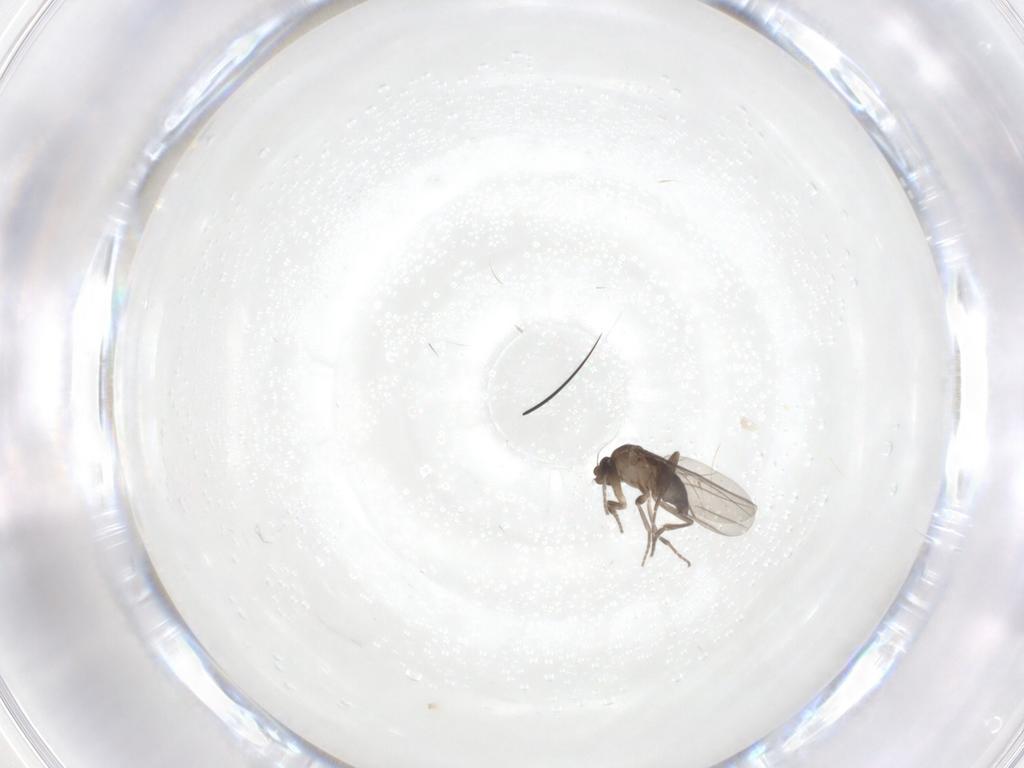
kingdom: Animalia
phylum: Arthropoda
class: Insecta
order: Diptera
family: Phoridae
